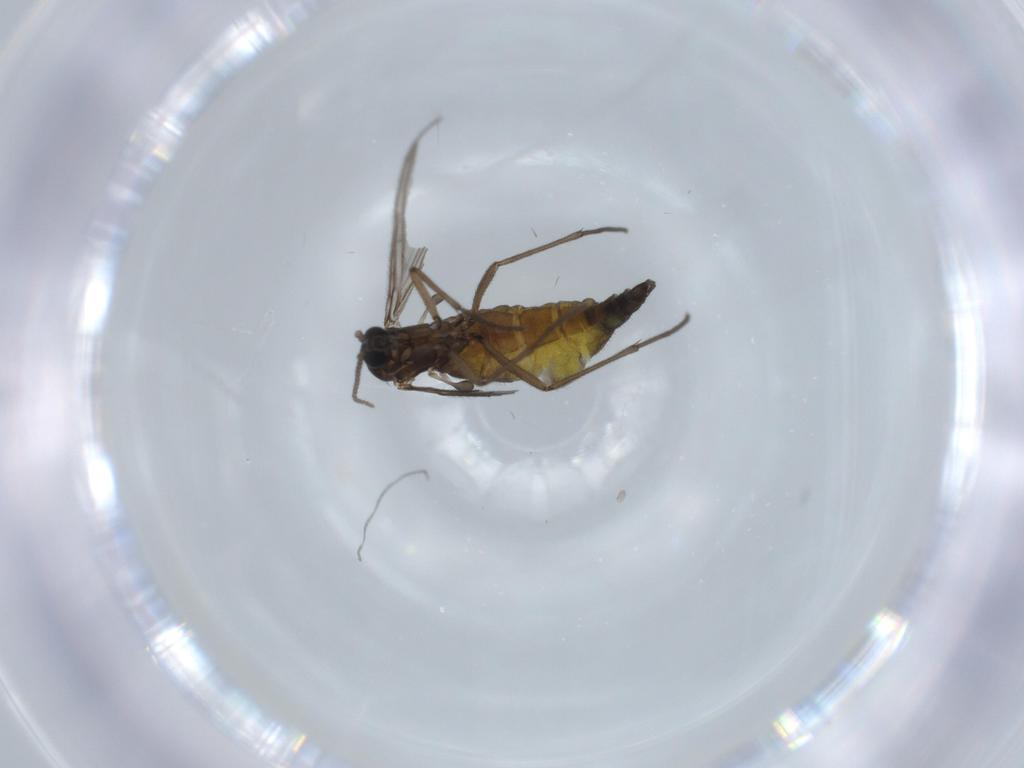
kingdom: Animalia
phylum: Arthropoda
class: Insecta
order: Diptera
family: Sciaridae
